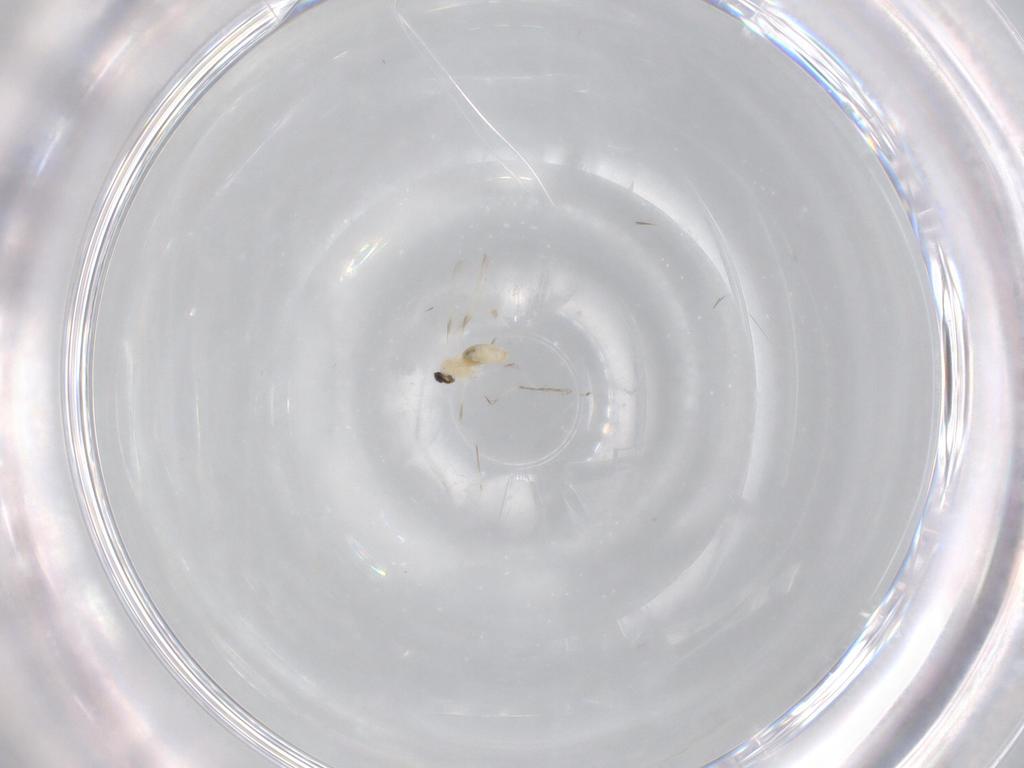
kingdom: Animalia
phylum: Arthropoda
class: Insecta
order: Diptera
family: Cecidomyiidae
